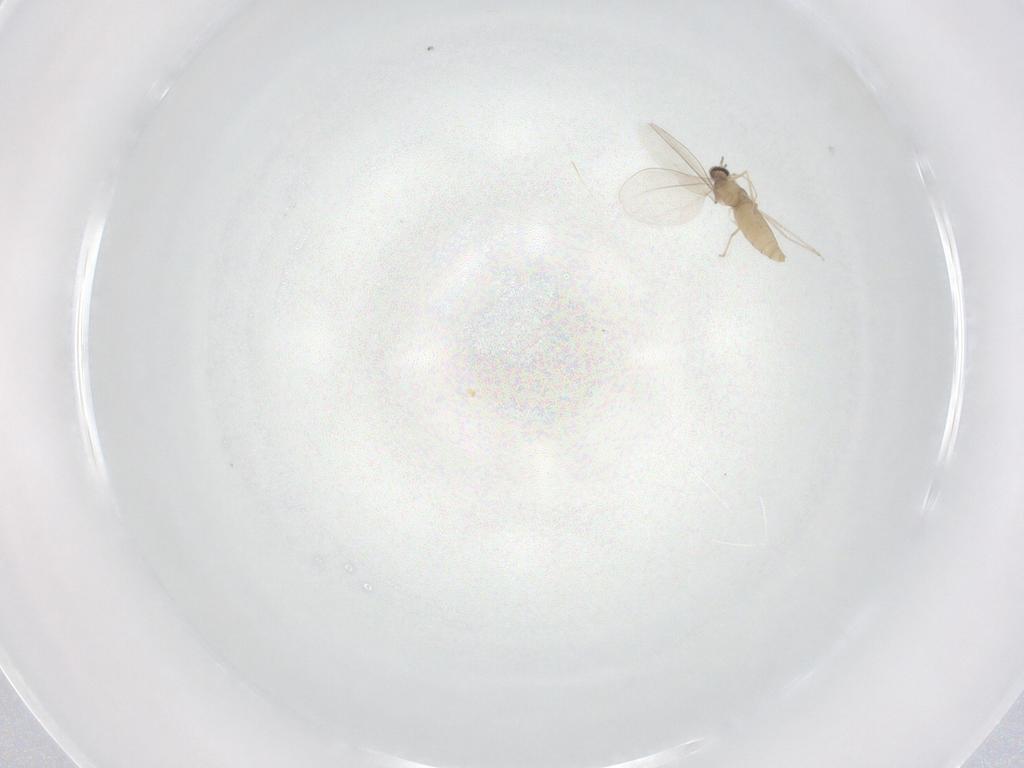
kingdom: Animalia
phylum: Arthropoda
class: Insecta
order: Diptera
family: Cecidomyiidae
